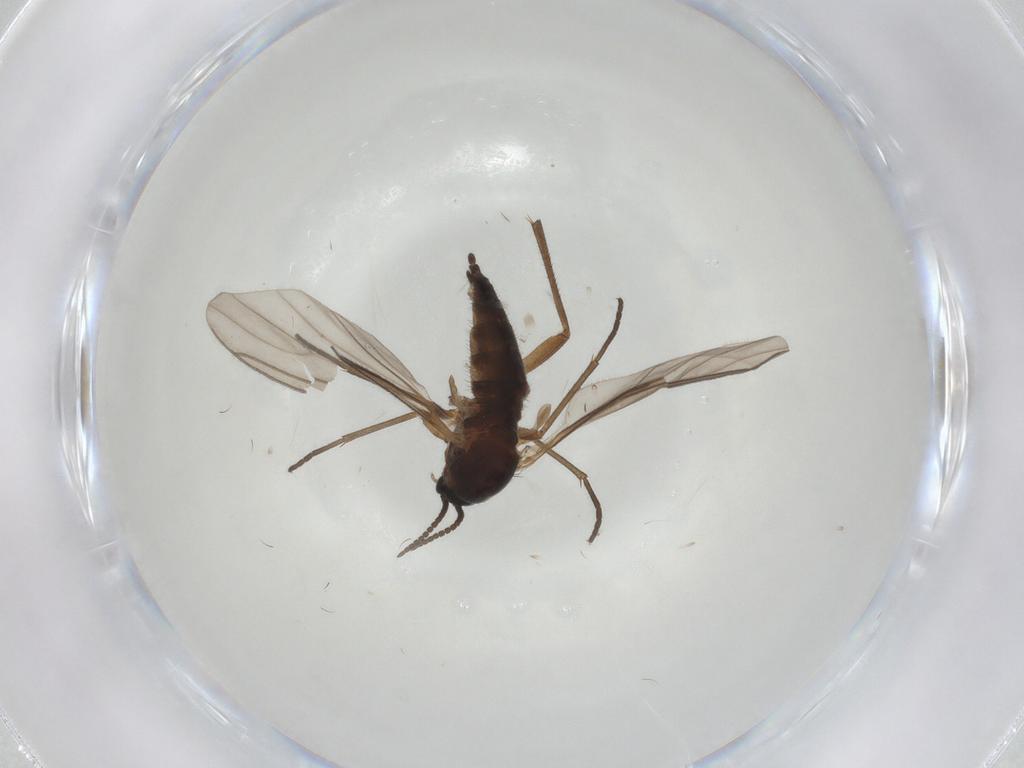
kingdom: Animalia
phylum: Arthropoda
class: Insecta
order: Diptera
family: Sciaridae
